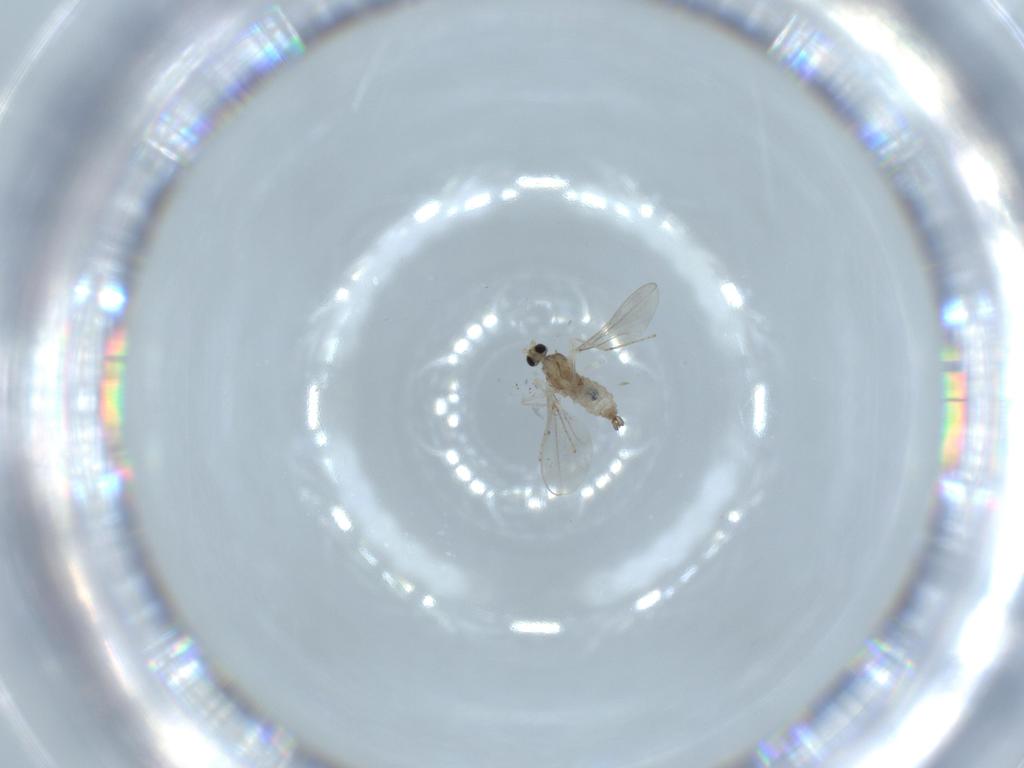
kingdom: Animalia
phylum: Arthropoda
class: Insecta
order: Diptera
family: Cecidomyiidae
